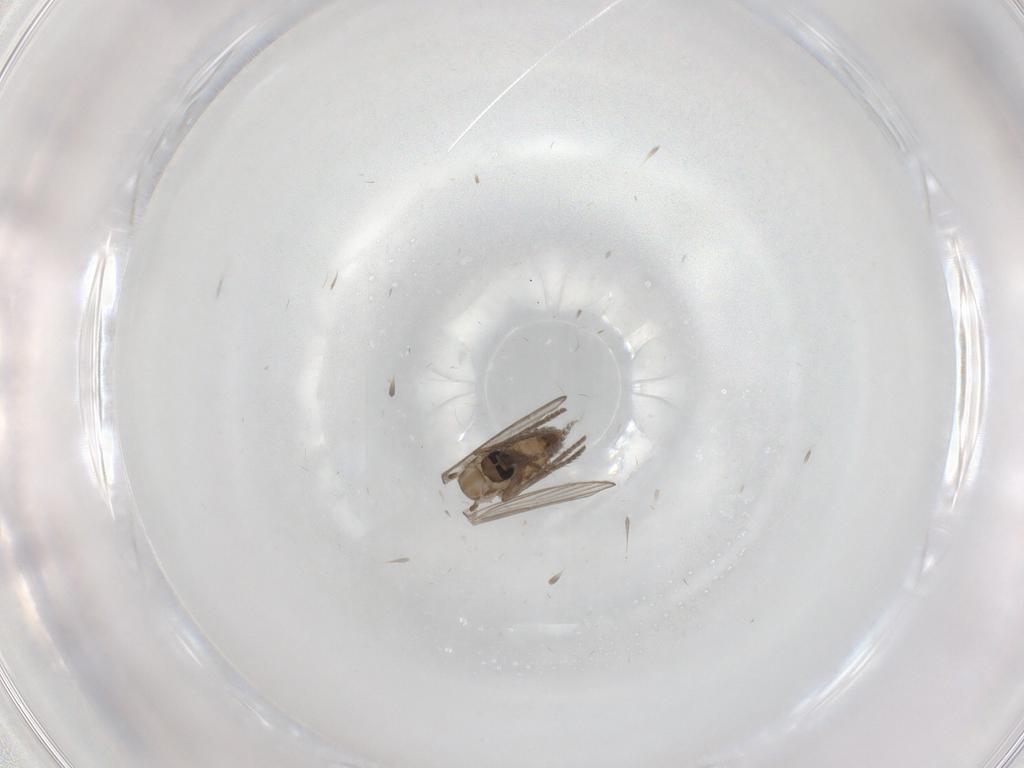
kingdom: Animalia
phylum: Arthropoda
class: Insecta
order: Diptera
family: Psychodidae
